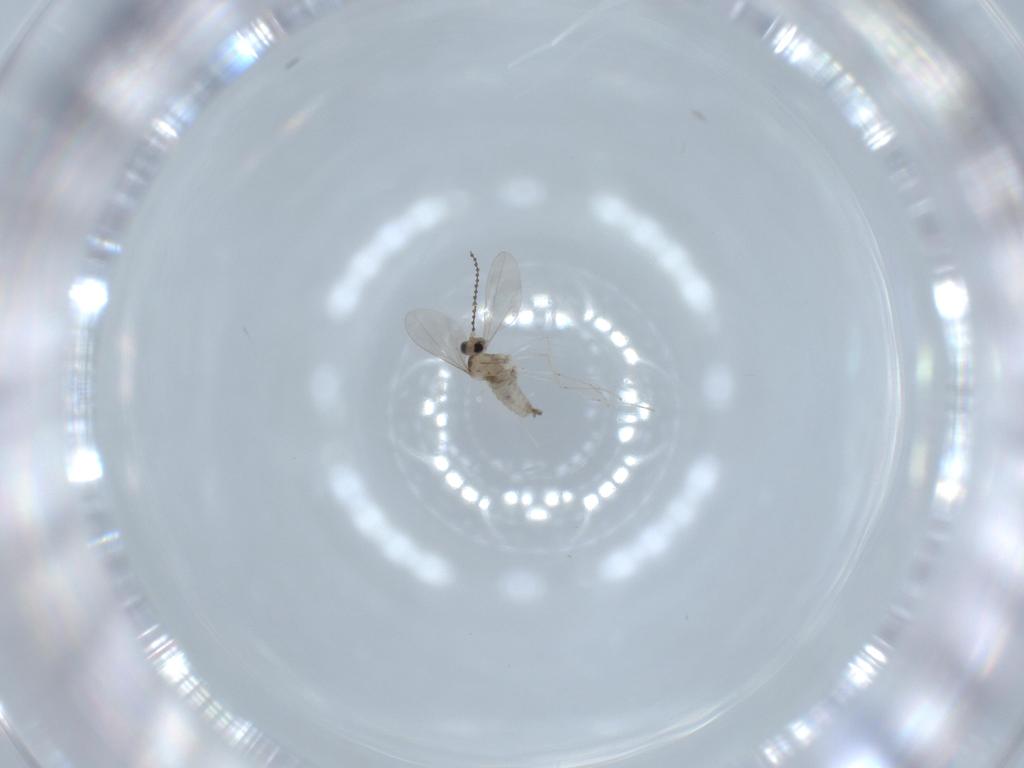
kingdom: Animalia
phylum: Arthropoda
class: Insecta
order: Diptera
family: Cecidomyiidae
